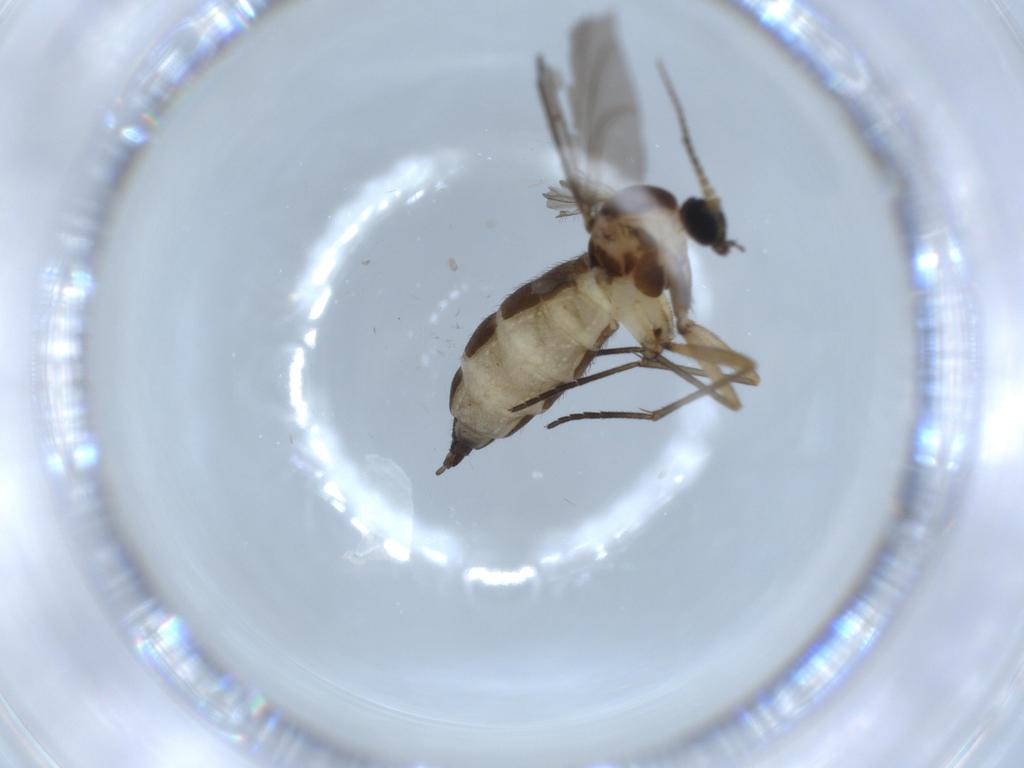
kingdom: Animalia
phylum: Arthropoda
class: Insecta
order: Diptera
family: Sciaridae
